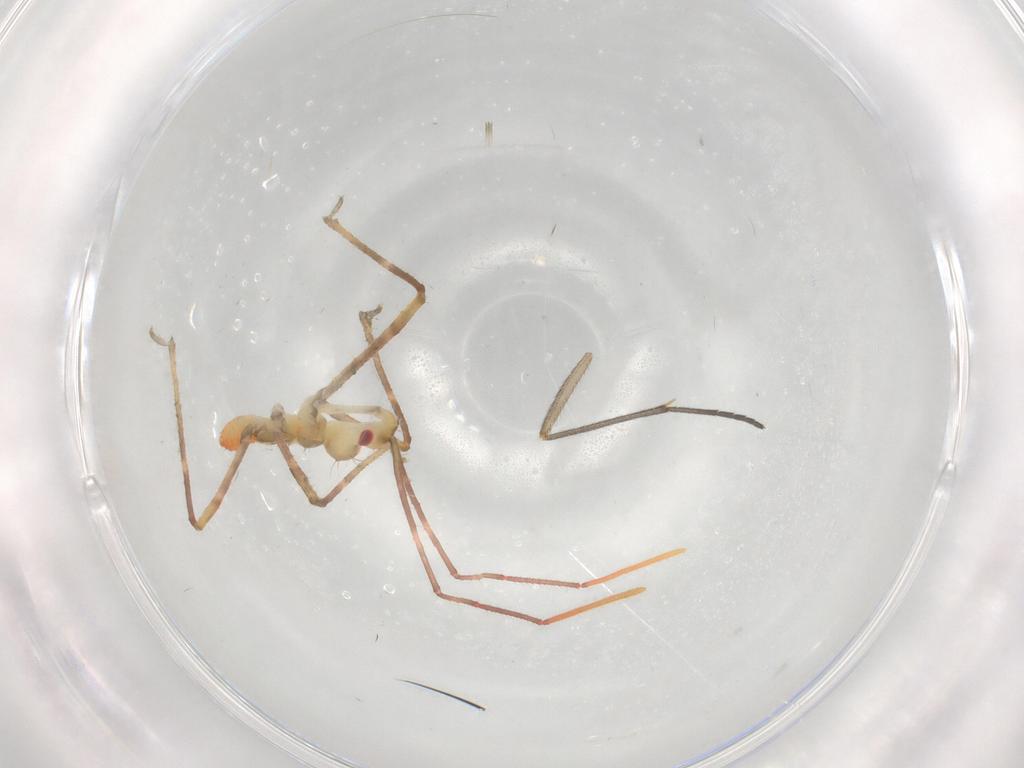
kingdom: Animalia
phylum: Arthropoda
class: Insecta
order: Hemiptera
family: Reduviidae
